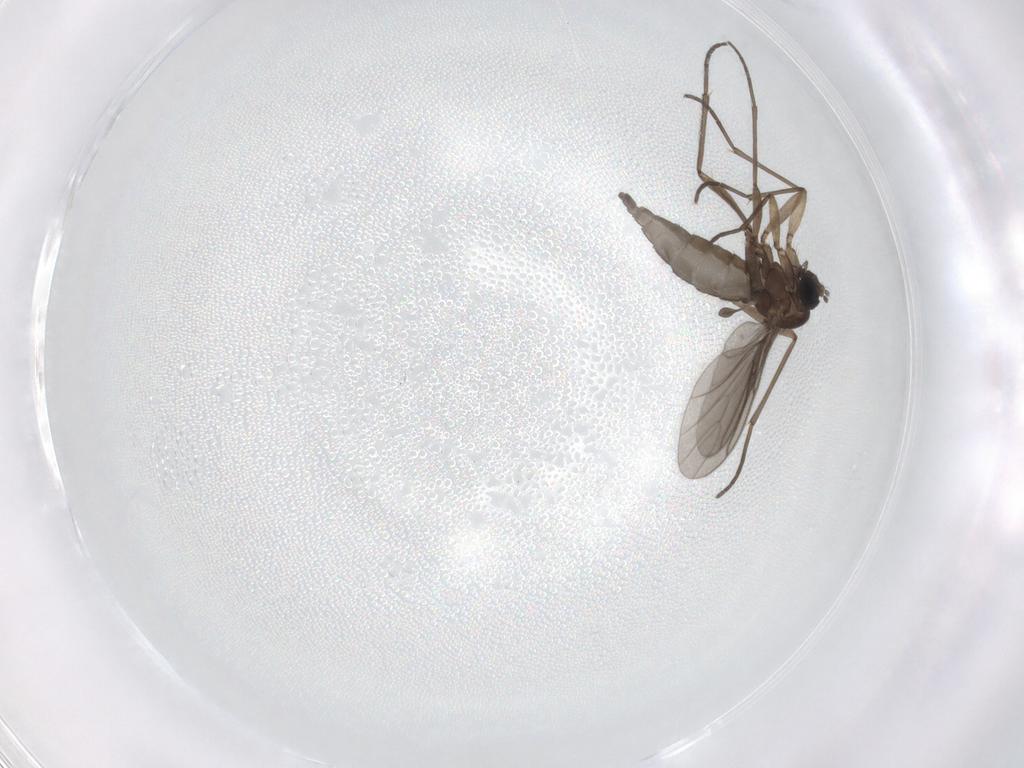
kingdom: Animalia
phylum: Arthropoda
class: Insecta
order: Diptera
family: Sciaridae
